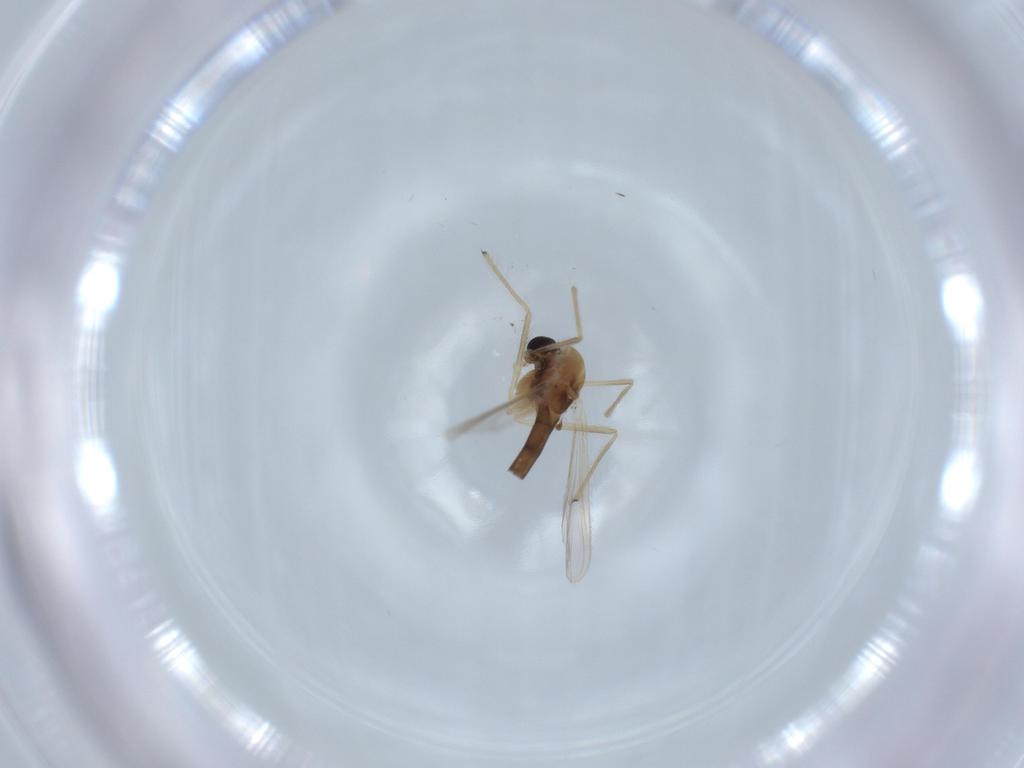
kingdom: Animalia
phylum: Arthropoda
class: Insecta
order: Diptera
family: Chironomidae
